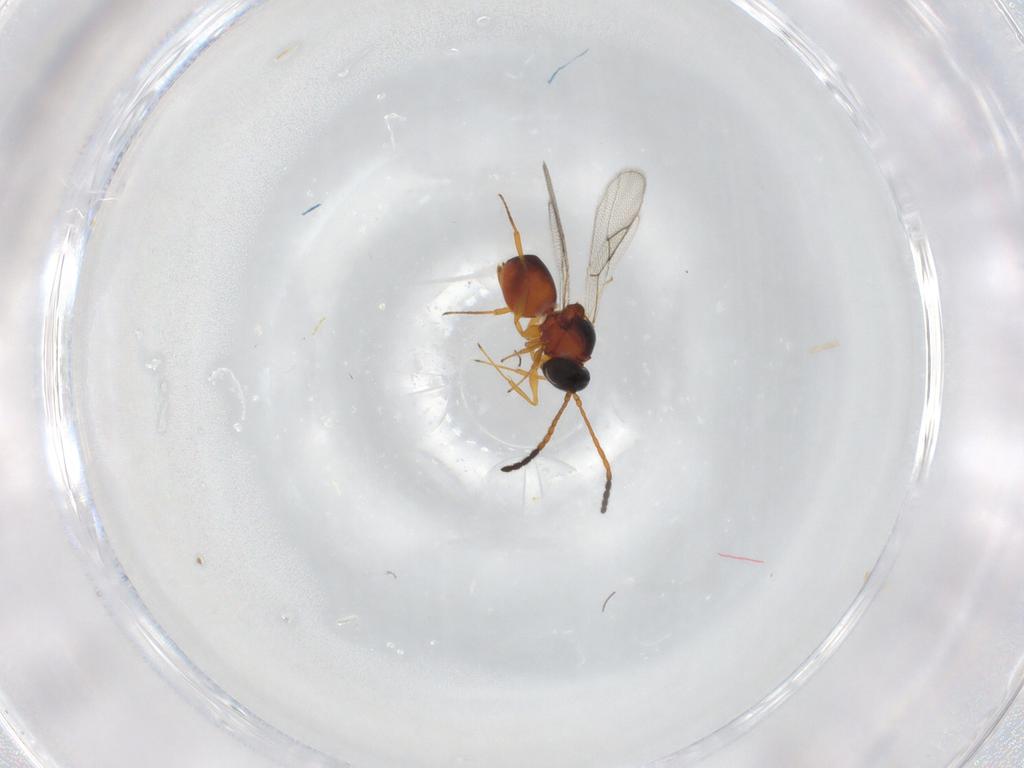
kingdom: Animalia
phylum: Arthropoda
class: Insecta
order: Hymenoptera
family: Figitidae
